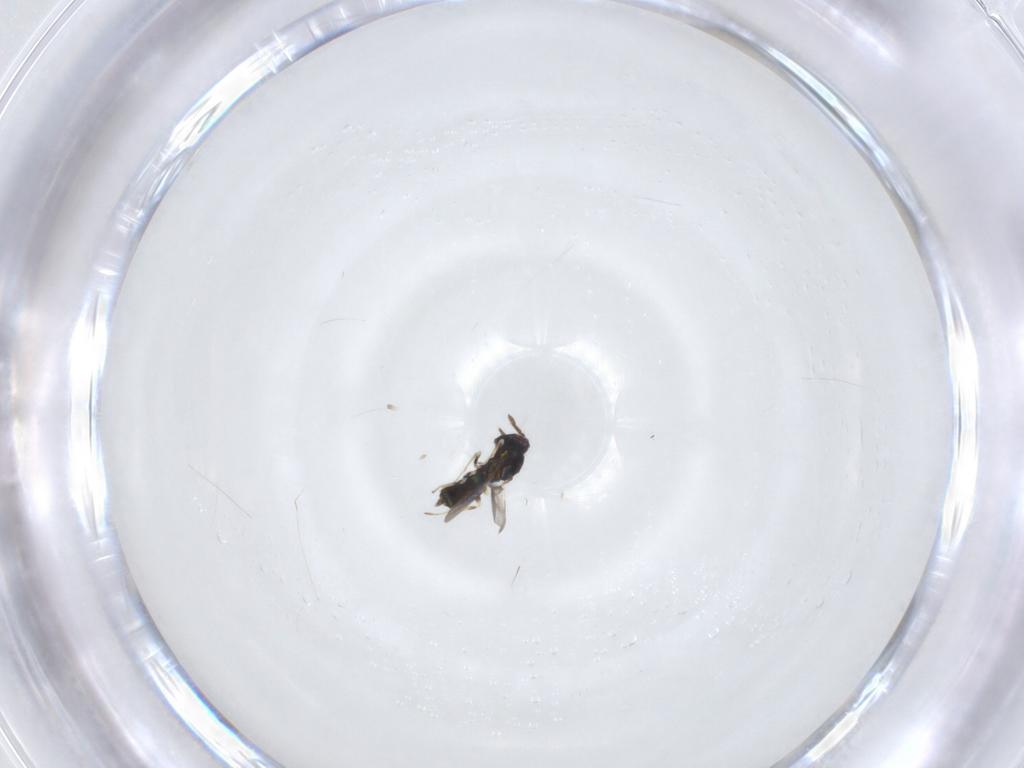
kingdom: Animalia
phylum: Arthropoda
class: Insecta
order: Hymenoptera
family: Eulophidae
